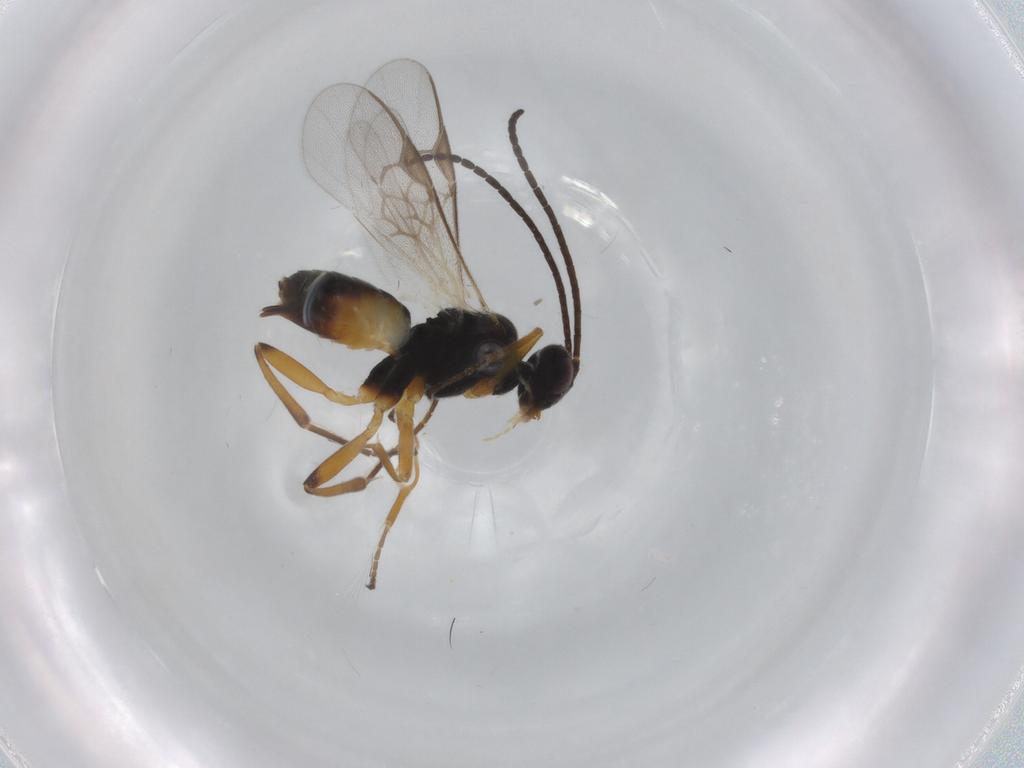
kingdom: Animalia
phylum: Arthropoda
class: Insecta
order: Hymenoptera
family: Braconidae
